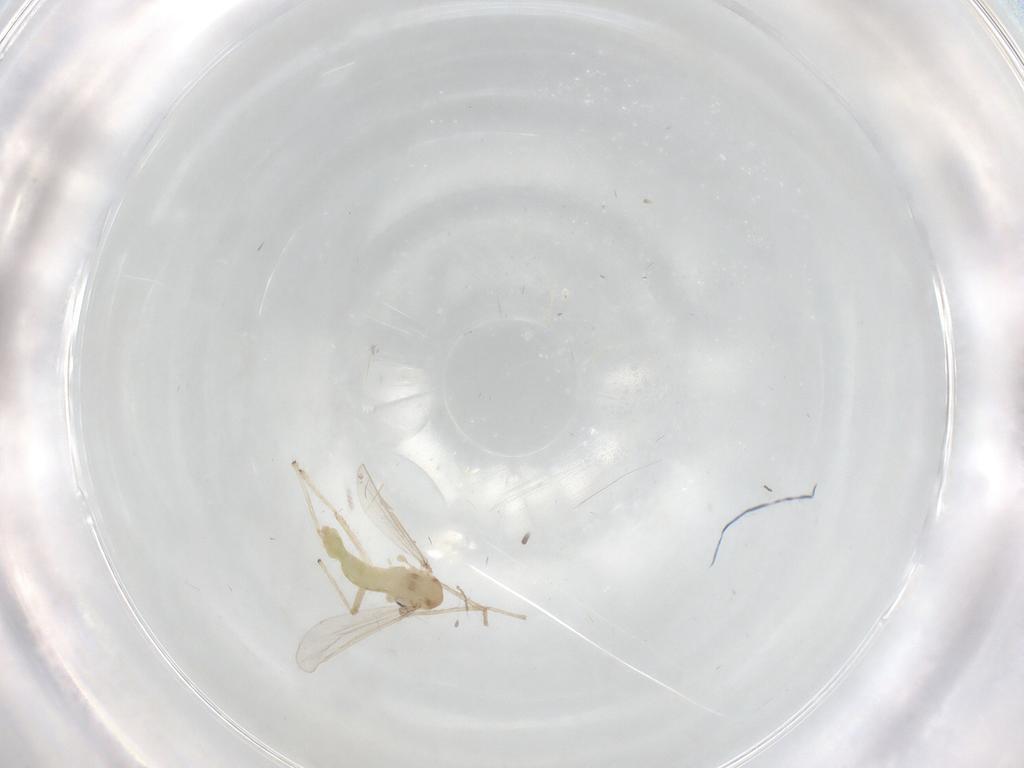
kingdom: Animalia
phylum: Arthropoda
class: Insecta
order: Diptera
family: Chironomidae
